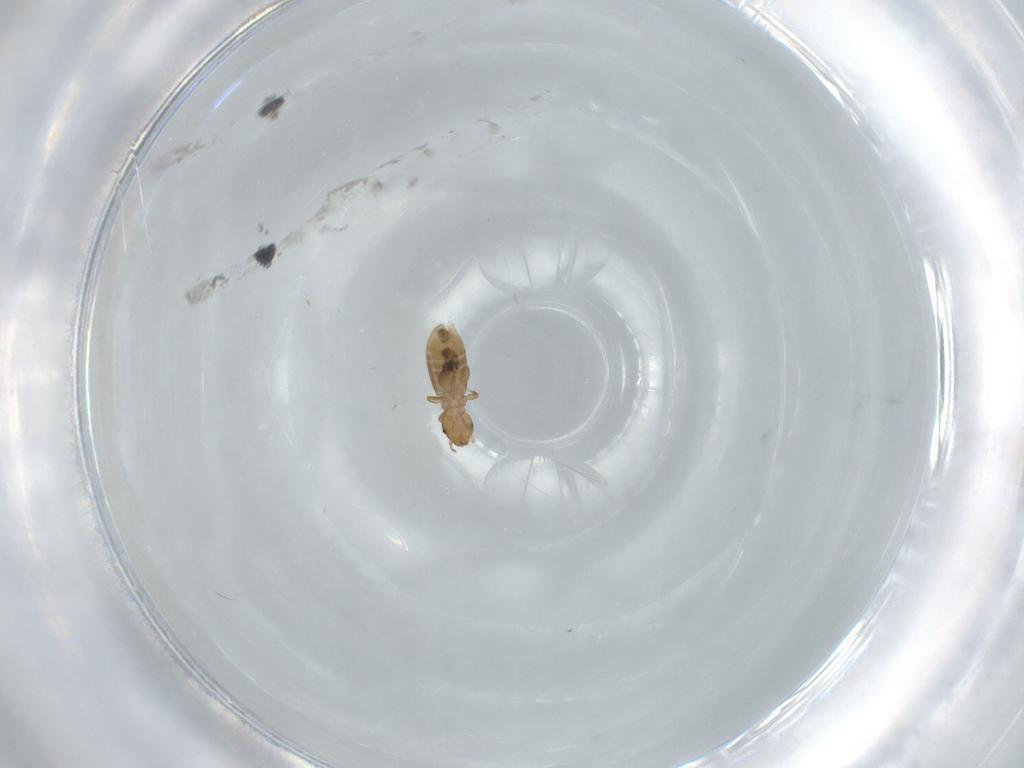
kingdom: Animalia
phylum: Arthropoda
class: Insecta
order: Psocodea
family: Liposcelididae
